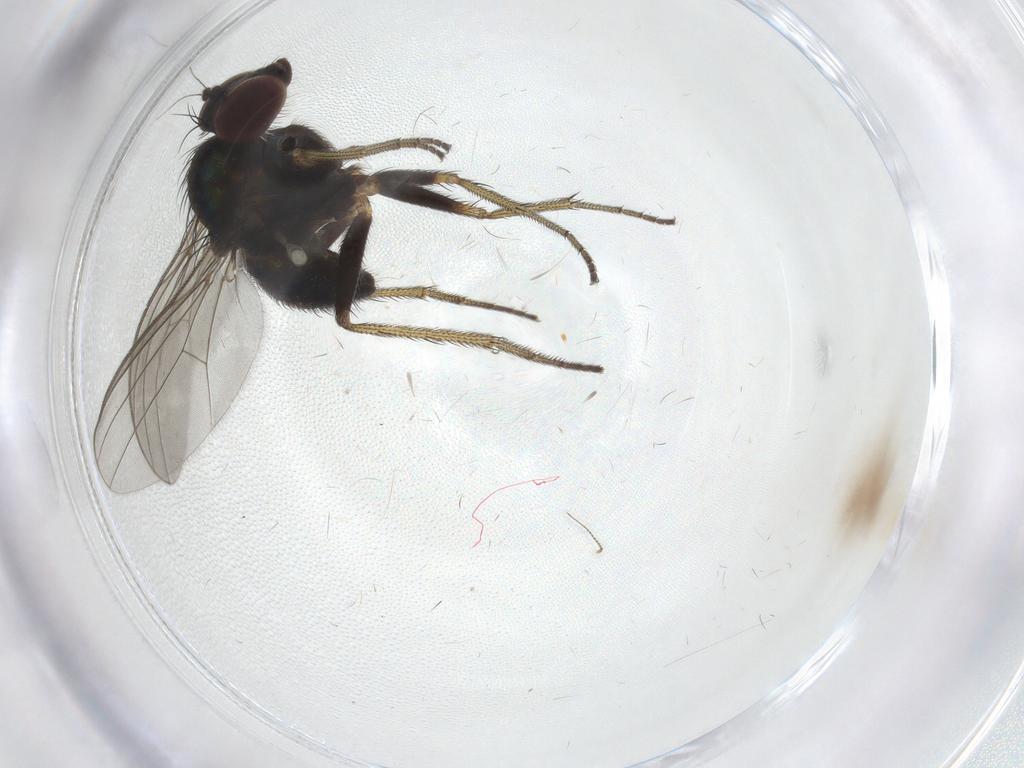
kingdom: Animalia
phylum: Arthropoda
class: Insecta
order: Diptera
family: Dolichopodidae
